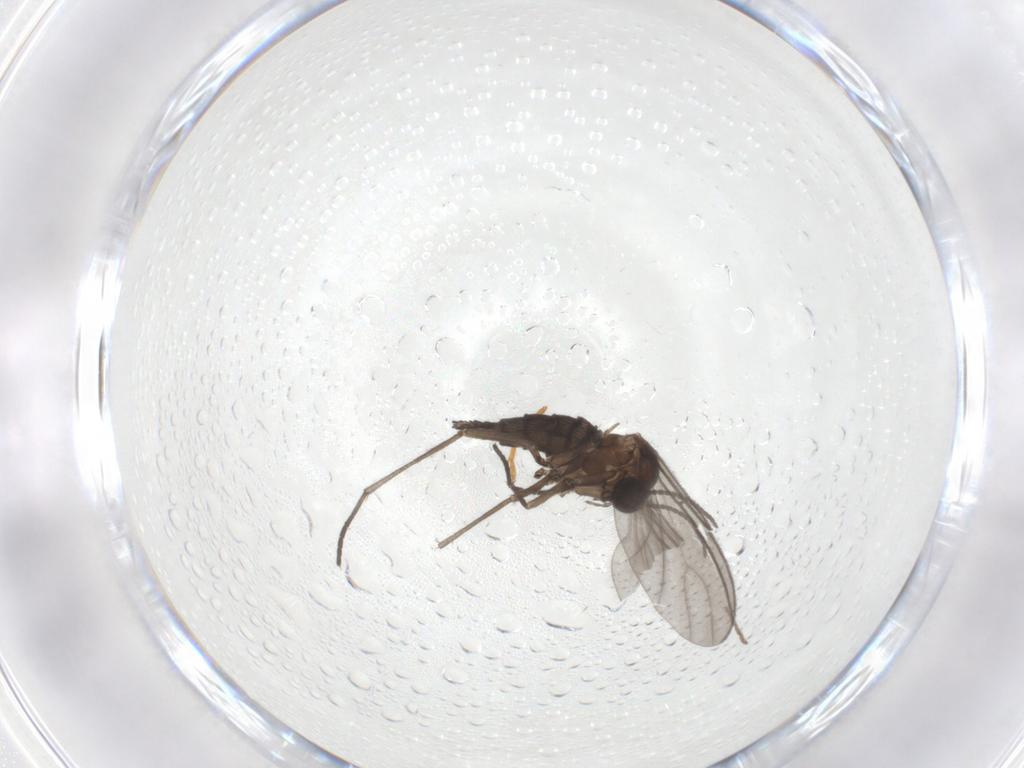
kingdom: Animalia
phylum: Arthropoda
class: Insecta
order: Diptera
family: Sciaridae
